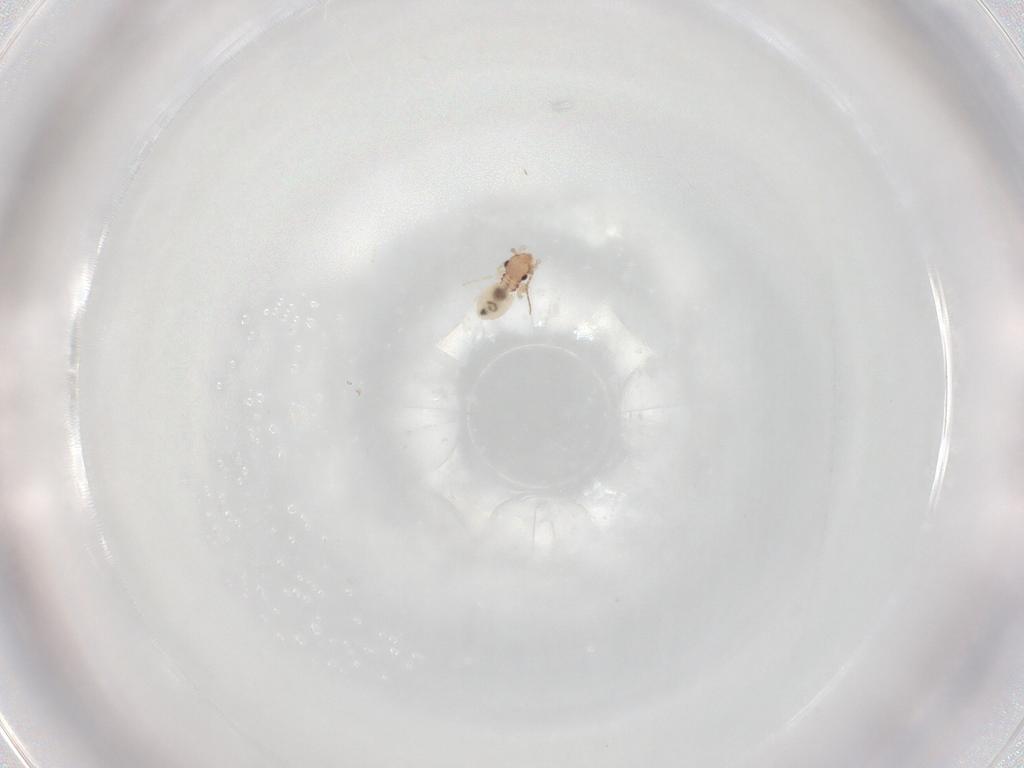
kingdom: Animalia
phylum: Arthropoda
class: Insecta
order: Psocodea
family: Lepidopsocidae
